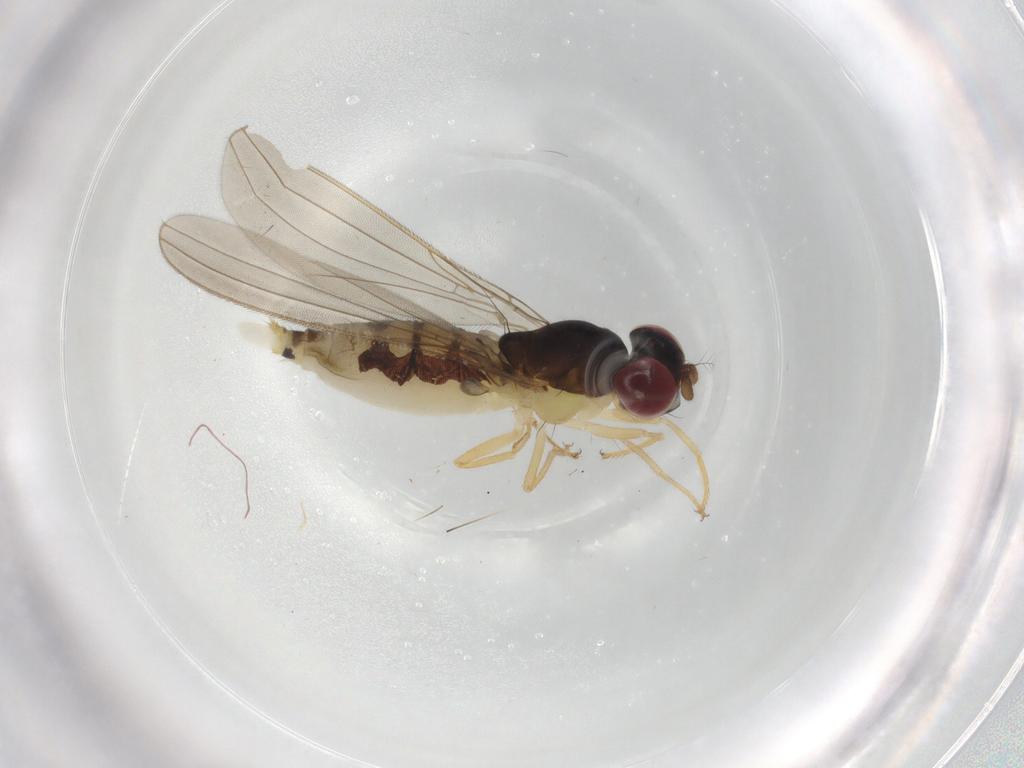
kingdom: Animalia
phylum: Arthropoda
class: Insecta
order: Diptera
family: Asteiidae
